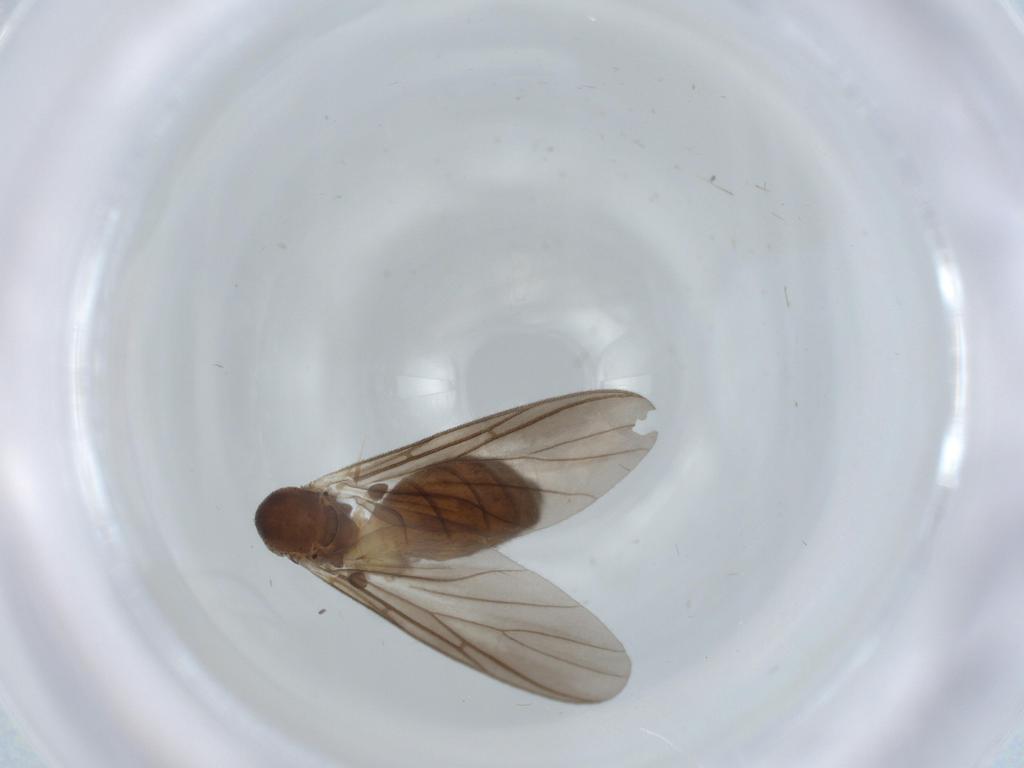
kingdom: Animalia
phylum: Arthropoda
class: Insecta
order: Diptera
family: Mycetophilidae
